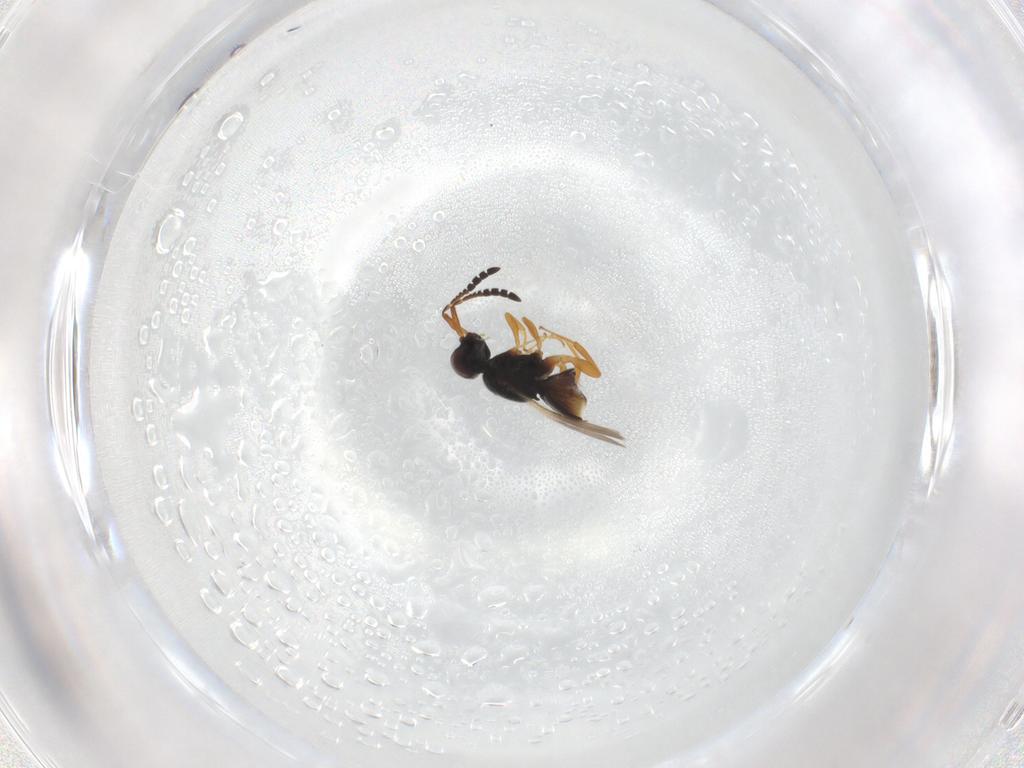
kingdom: Animalia
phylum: Arthropoda
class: Insecta
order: Hymenoptera
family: Ceraphronidae
